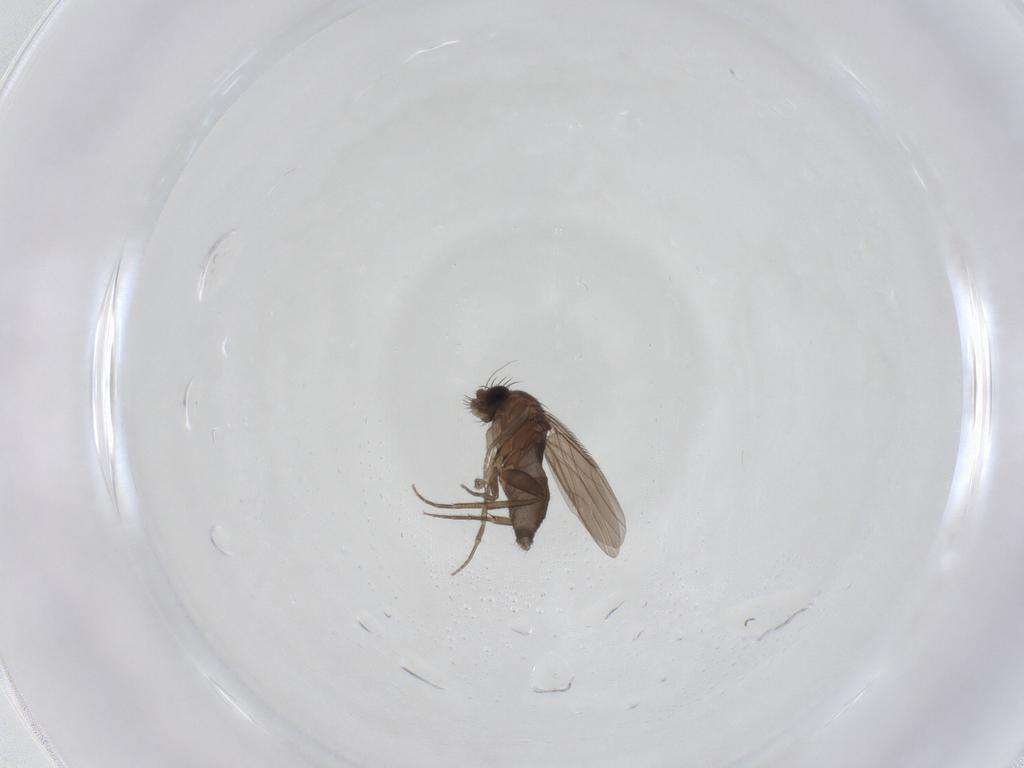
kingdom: Animalia
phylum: Arthropoda
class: Insecta
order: Diptera
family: Phoridae
